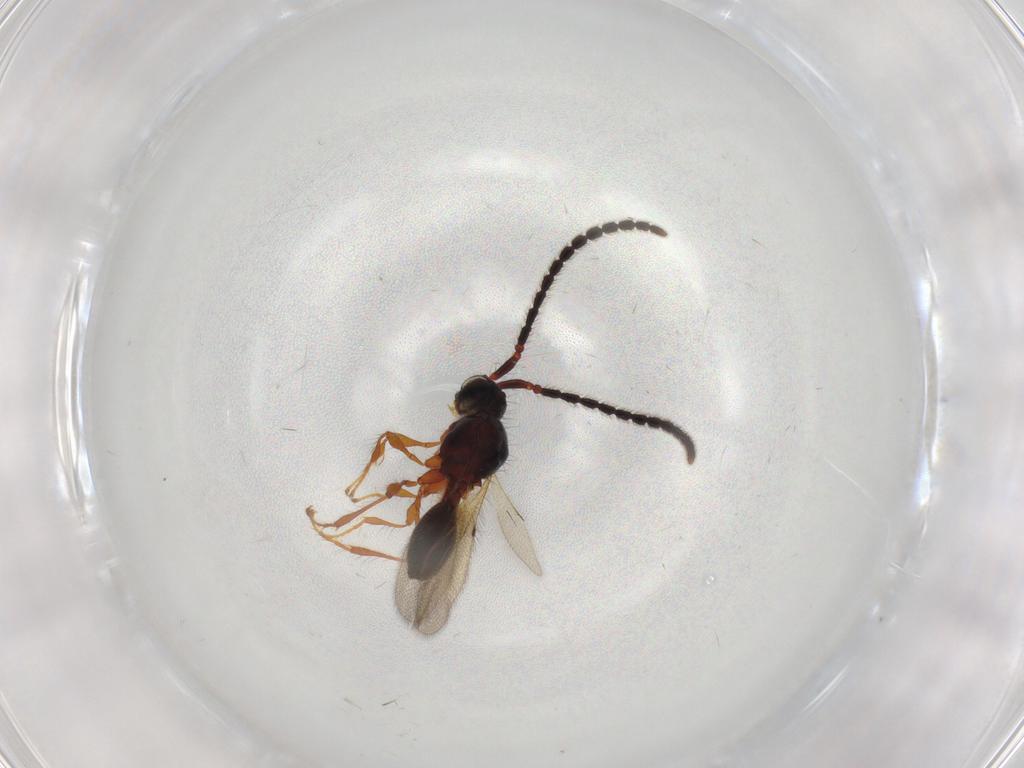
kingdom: Animalia
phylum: Arthropoda
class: Insecta
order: Hymenoptera
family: Diapriidae
